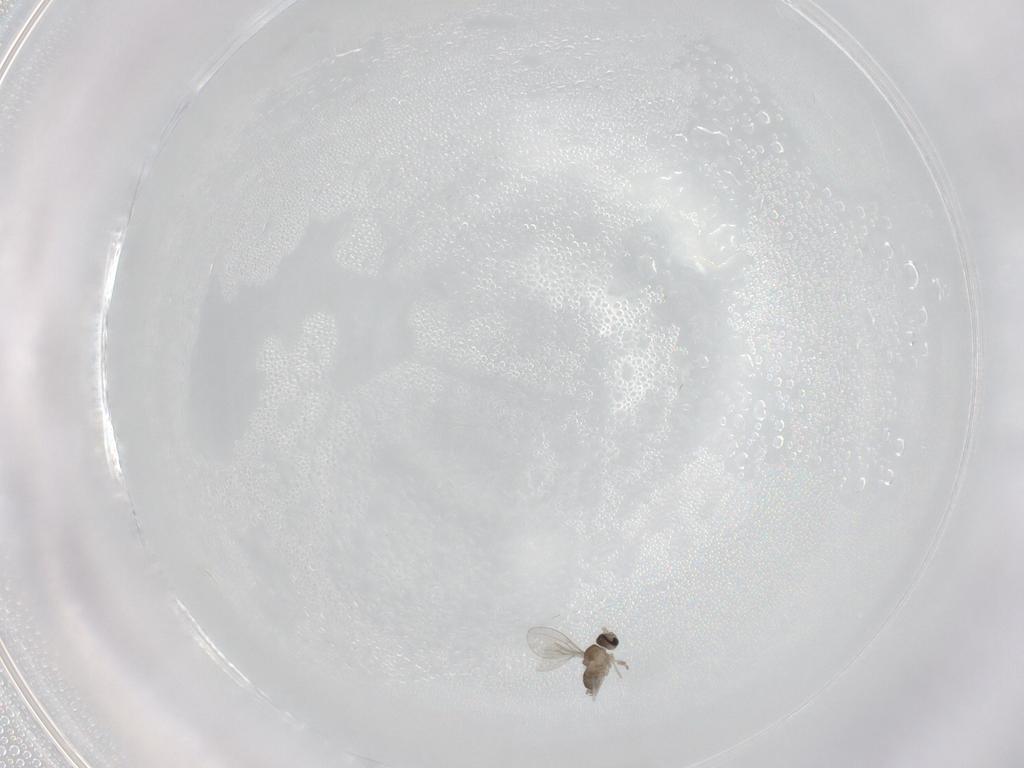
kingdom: Animalia
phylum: Arthropoda
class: Insecta
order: Diptera
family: Cecidomyiidae
